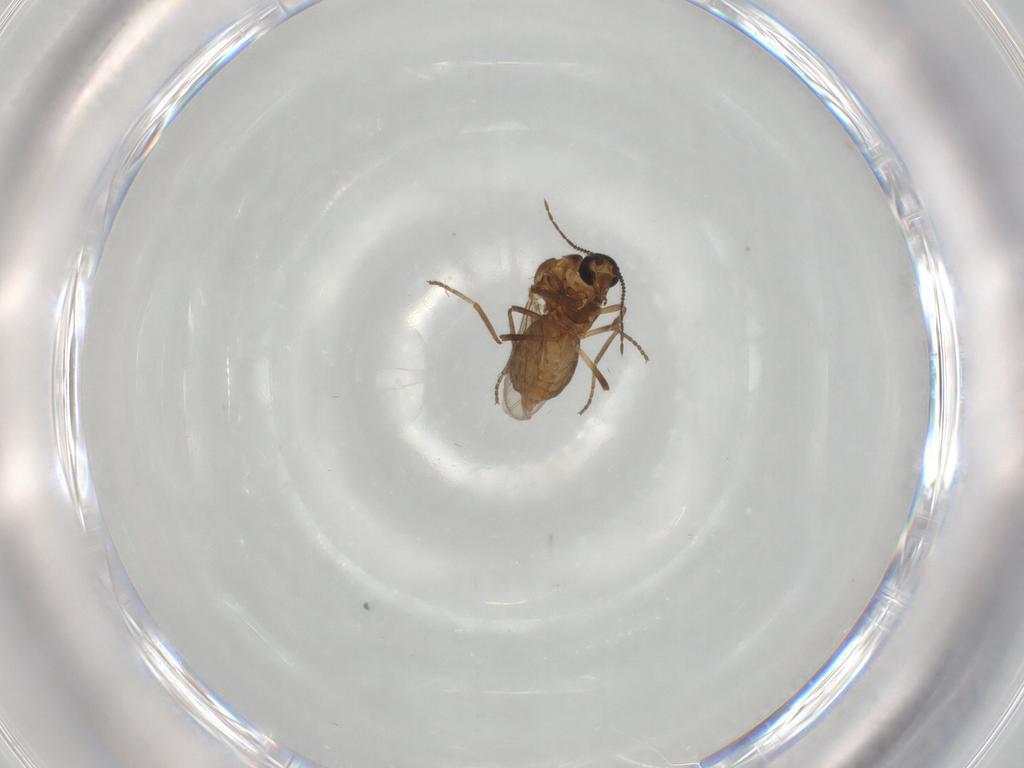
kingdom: Animalia
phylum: Arthropoda
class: Insecta
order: Diptera
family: Ceratopogonidae
